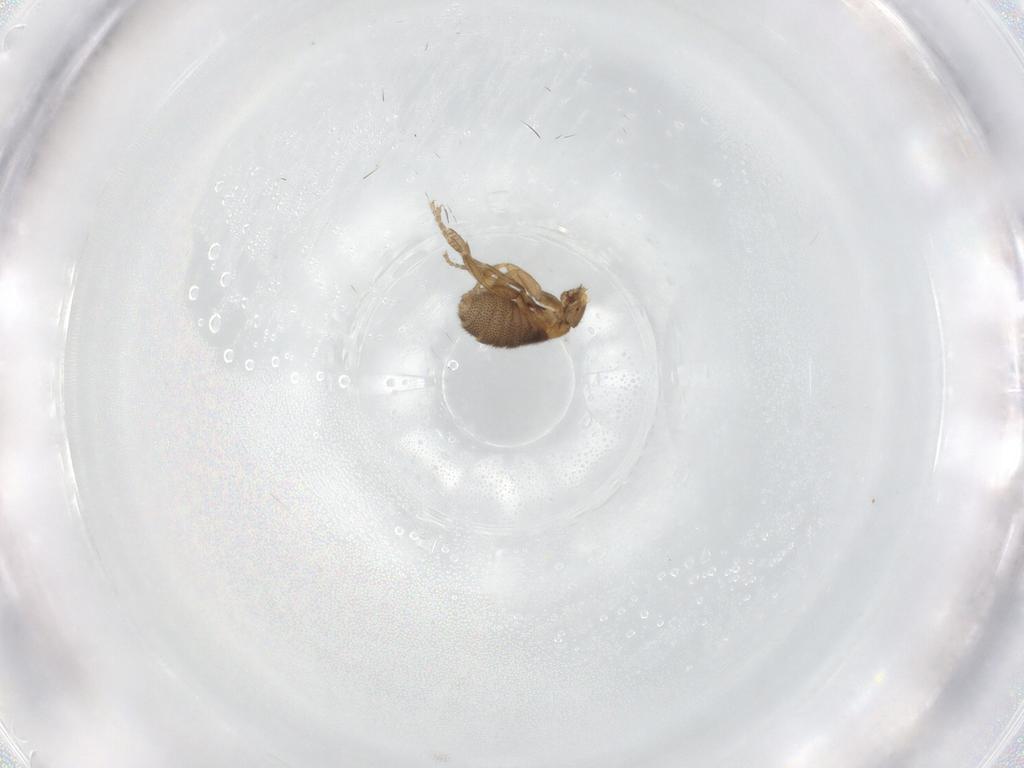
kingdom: Animalia
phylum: Arthropoda
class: Insecta
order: Diptera
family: Phoridae
